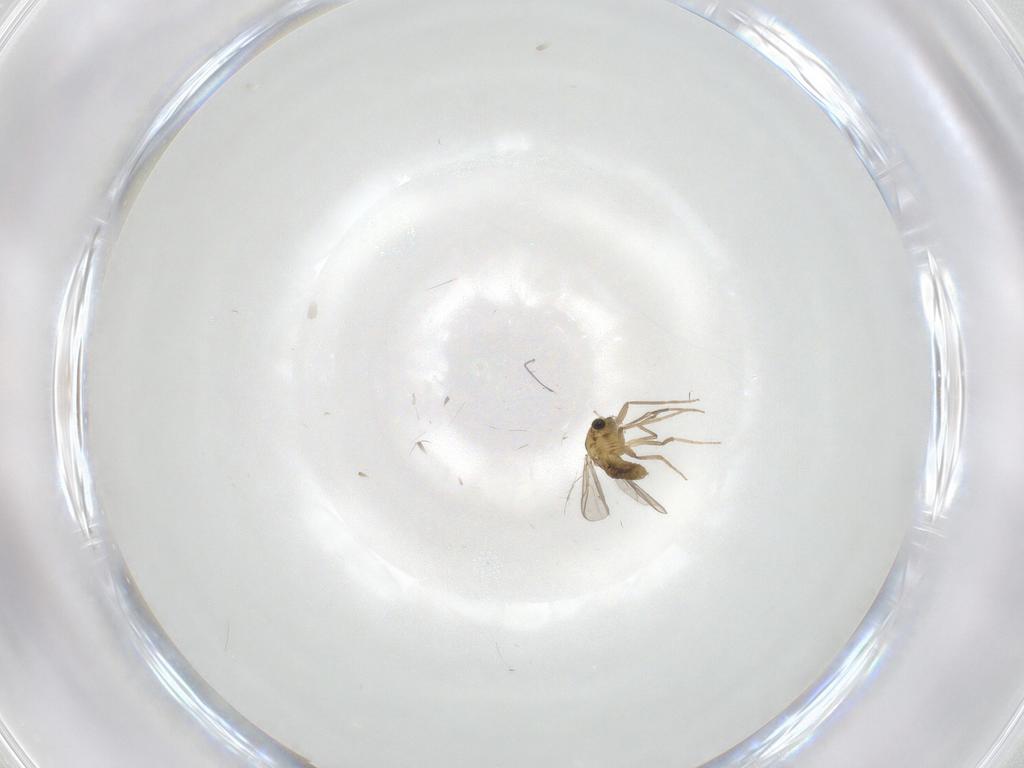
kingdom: Animalia
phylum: Arthropoda
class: Insecta
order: Diptera
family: Chironomidae
